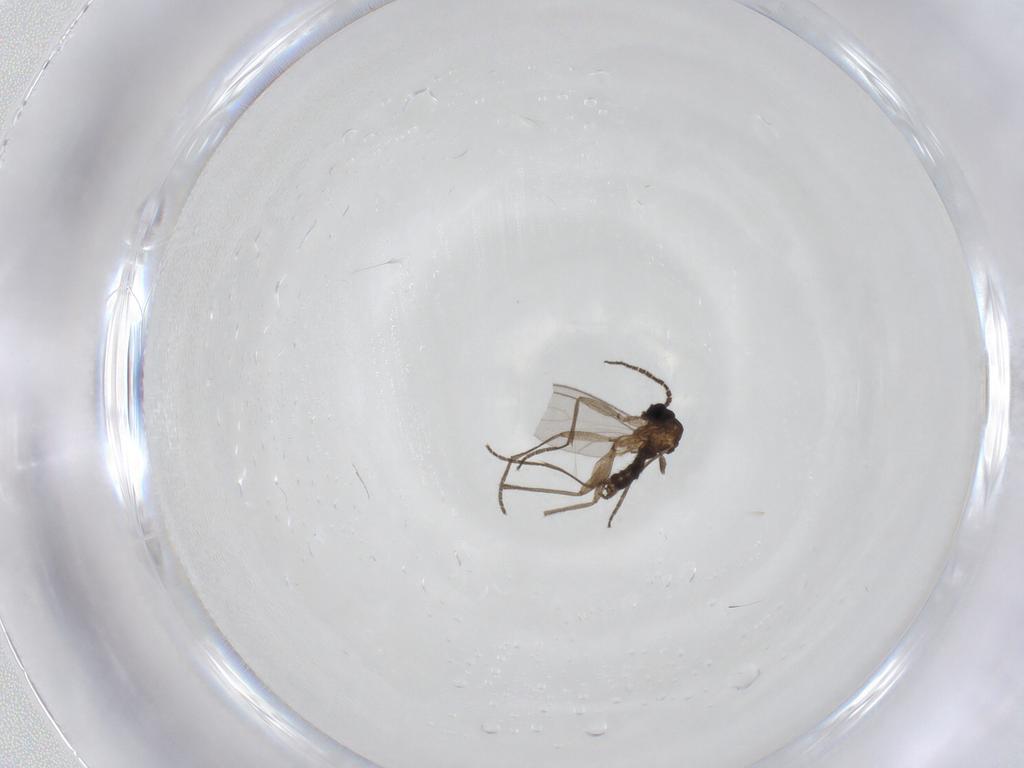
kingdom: Animalia
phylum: Arthropoda
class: Insecta
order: Diptera
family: Sciaridae
